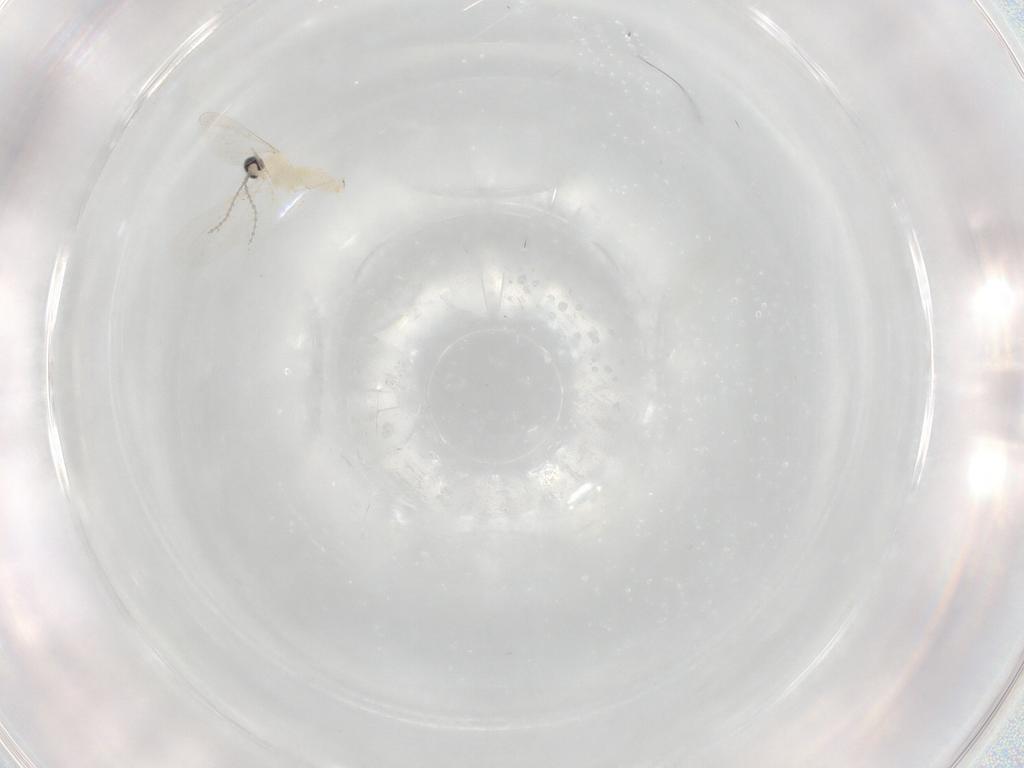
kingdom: Animalia
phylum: Arthropoda
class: Insecta
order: Diptera
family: Cecidomyiidae
